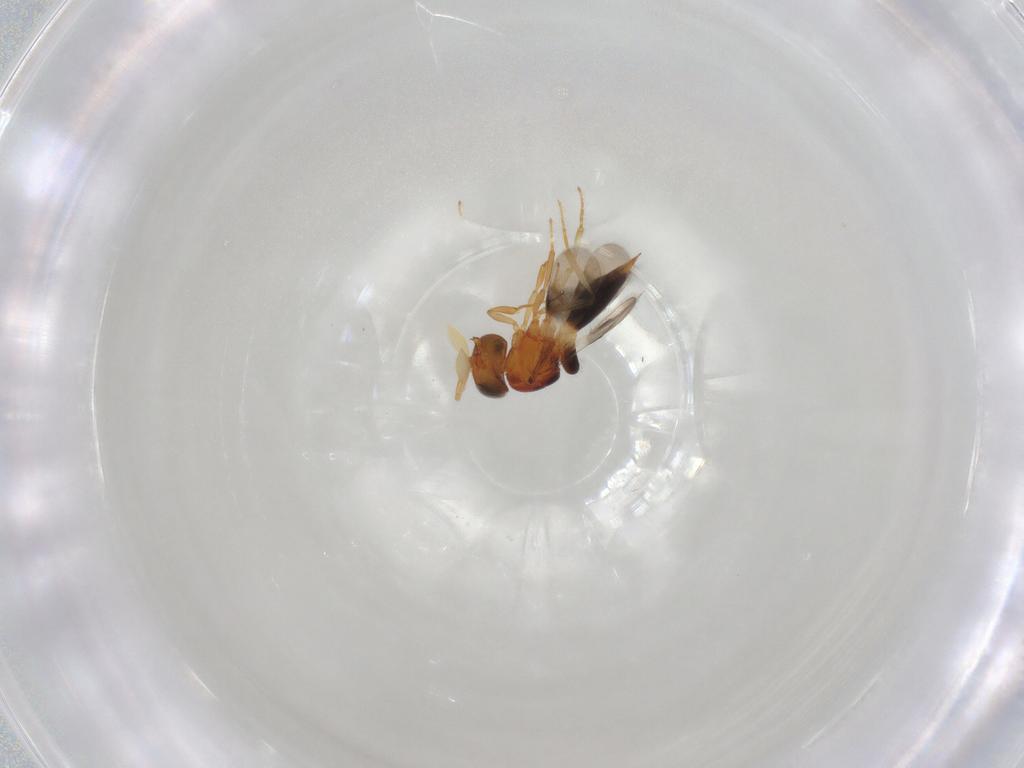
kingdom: Animalia
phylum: Arthropoda
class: Insecta
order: Hymenoptera
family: Scelionidae
